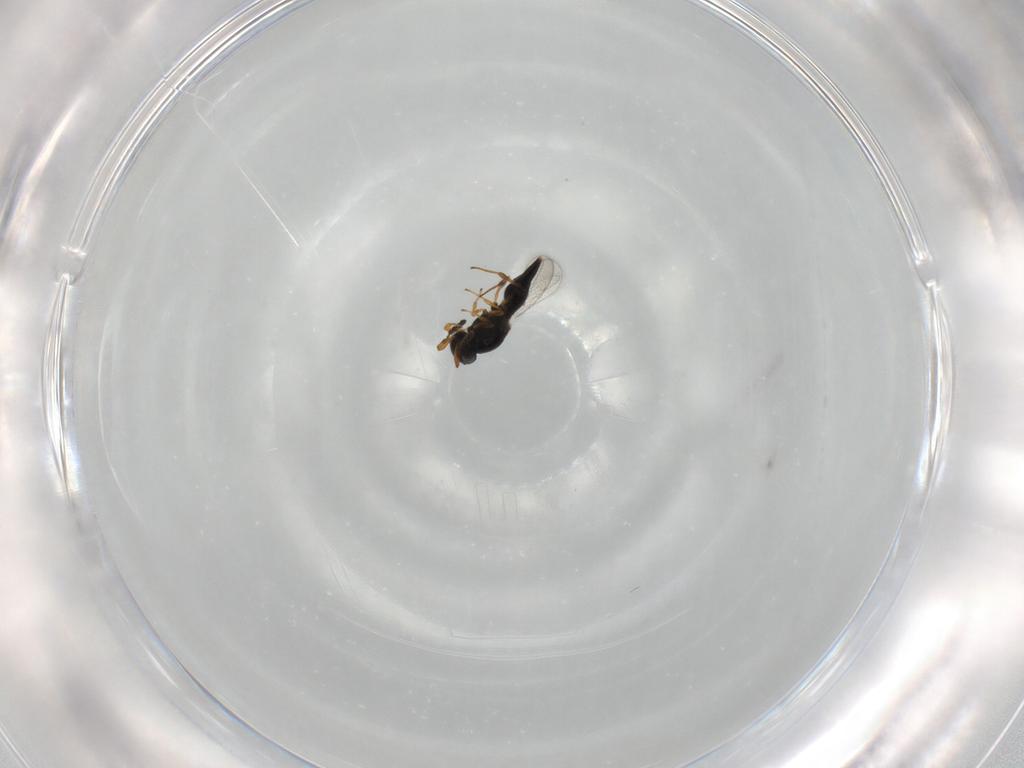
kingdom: Animalia
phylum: Arthropoda
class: Insecta
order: Hymenoptera
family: Platygastridae
